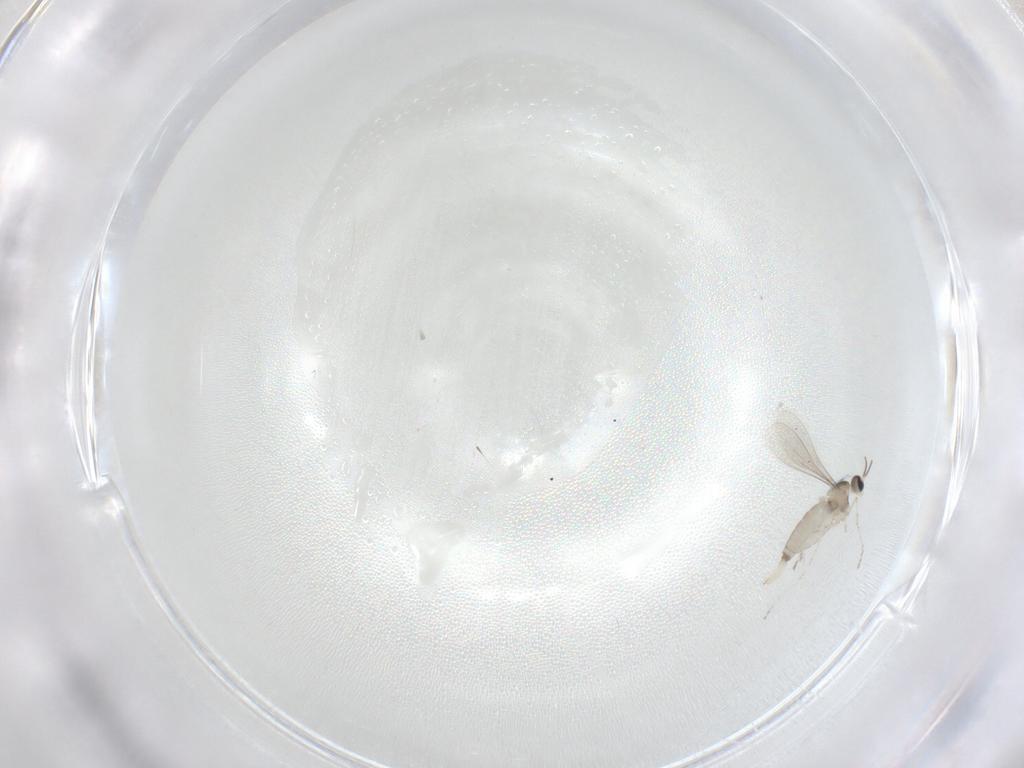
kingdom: Animalia
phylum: Arthropoda
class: Insecta
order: Diptera
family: Cecidomyiidae
